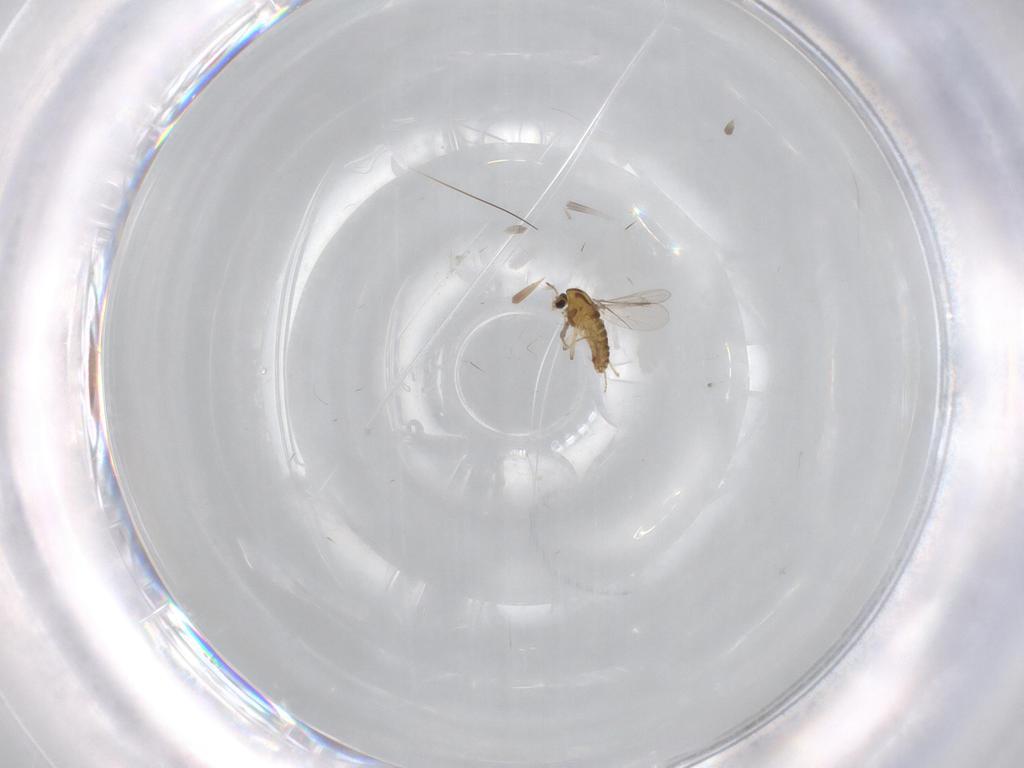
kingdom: Animalia
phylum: Arthropoda
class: Insecta
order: Diptera
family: Chironomidae
